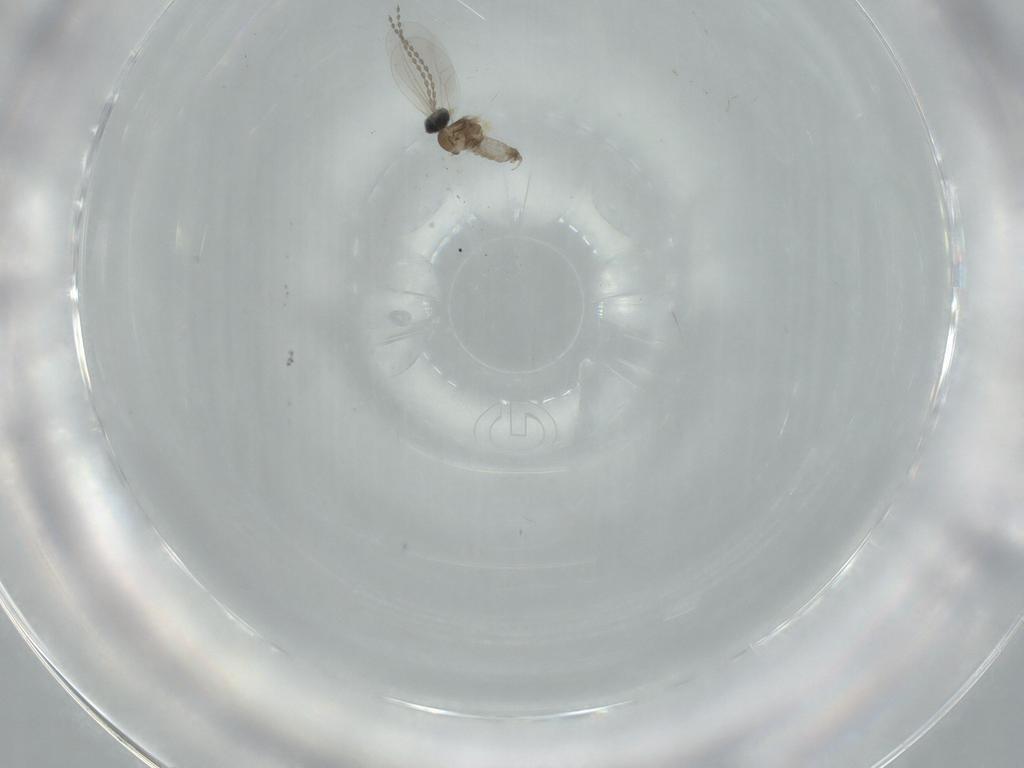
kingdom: Animalia
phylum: Arthropoda
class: Insecta
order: Diptera
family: Cecidomyiidae
